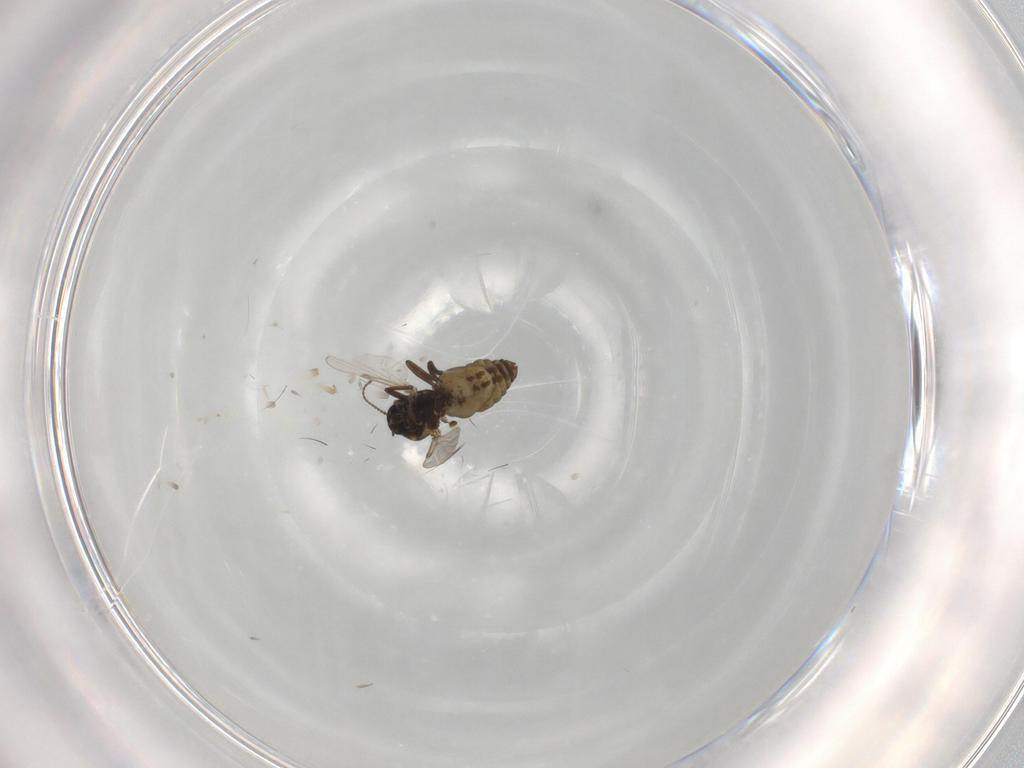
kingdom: Animalia
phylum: Arthropoda
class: Insecta
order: Diptera
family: Ceratopogonidae
